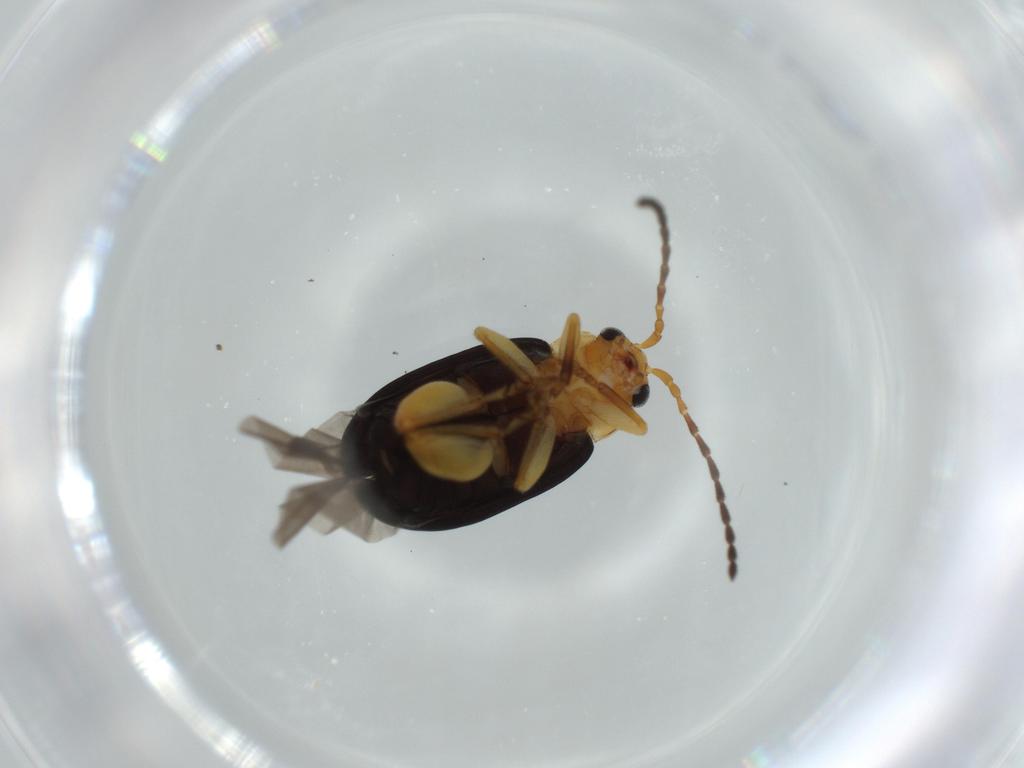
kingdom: Animalia
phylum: Arthropoda
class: Insecta
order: Coleoptera
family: Chrysomelidae
